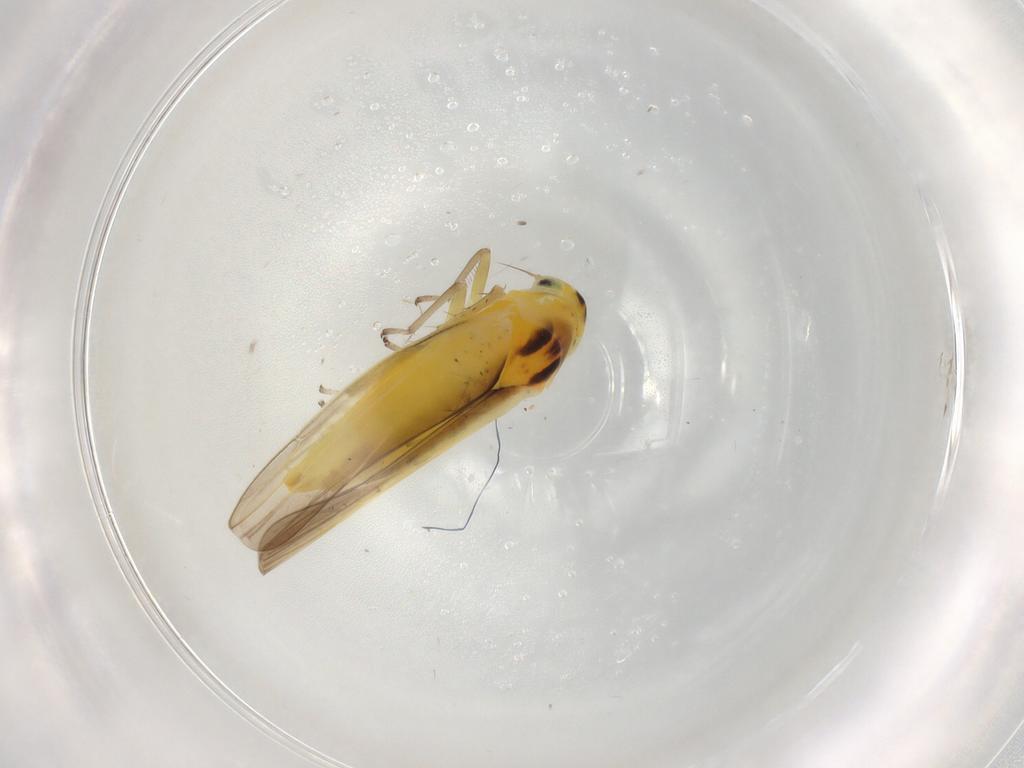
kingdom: Animalia
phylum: Arthropoda
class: Insecta
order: Hemiptera
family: Cicadellidae
